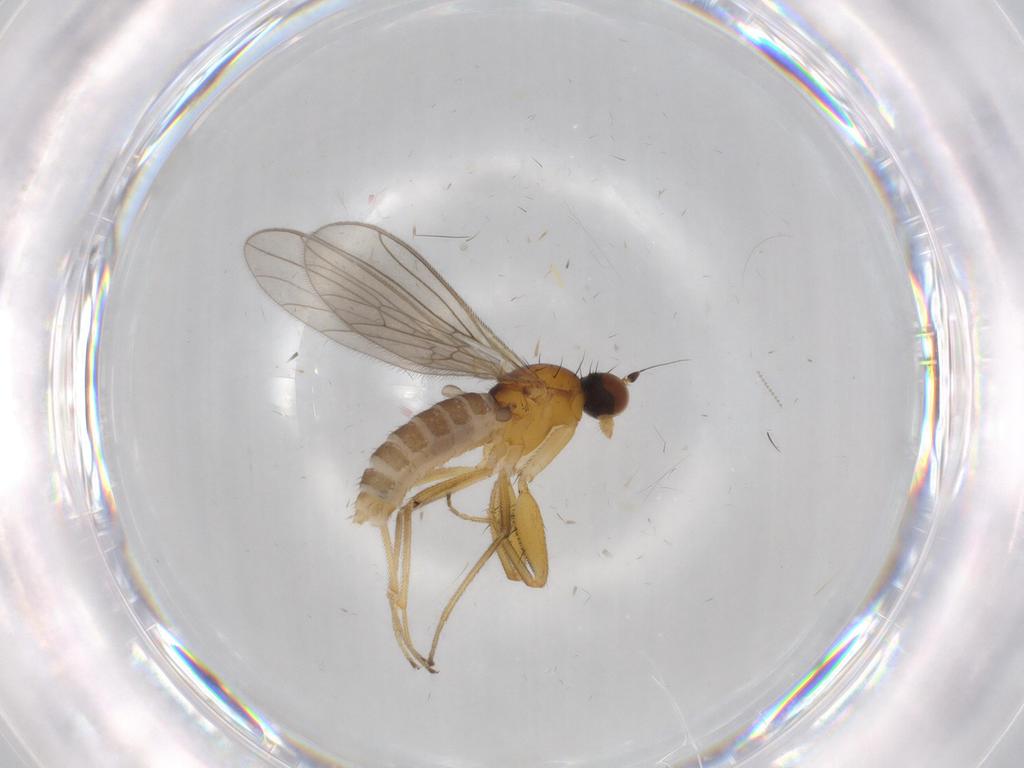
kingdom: Animalia
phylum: Arthropoda
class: Insecta
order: Diptera
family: Empididae
